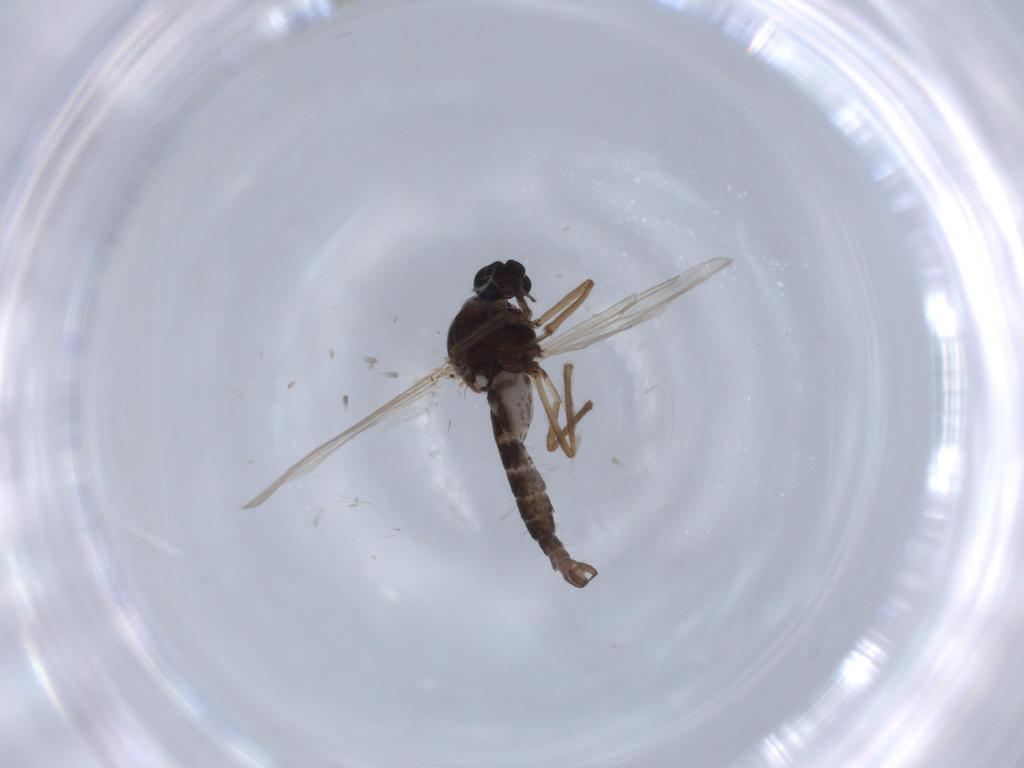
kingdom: Animalia
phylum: Arthropoda
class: Insecta
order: Diptera
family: Ceratopogonidae
